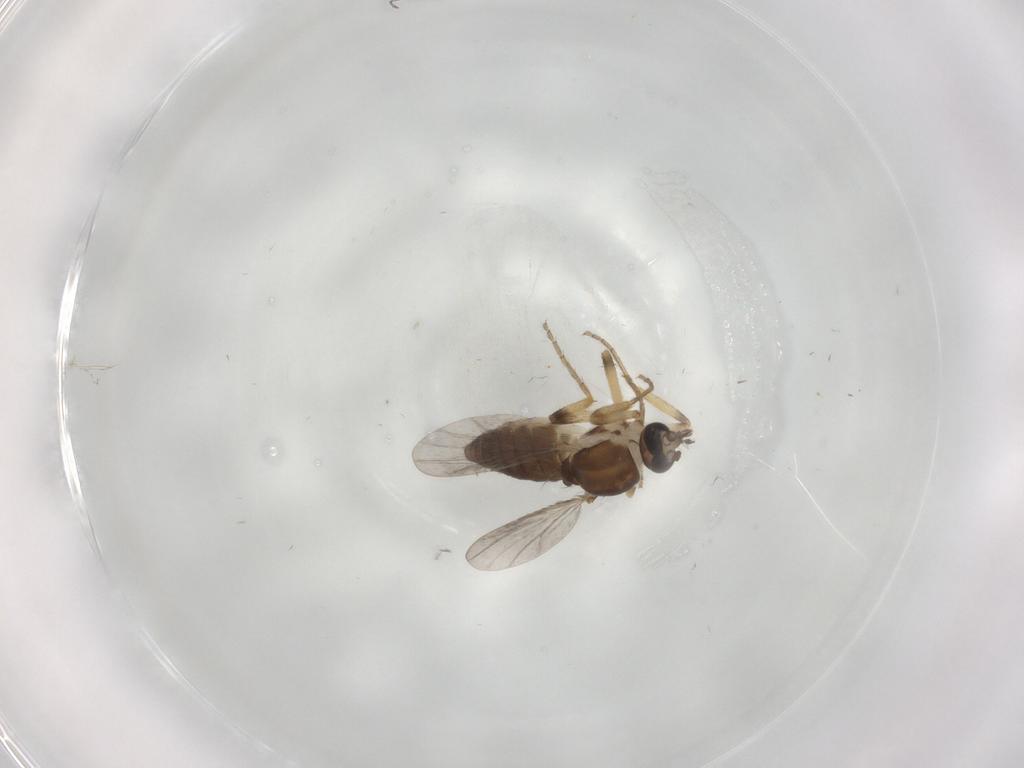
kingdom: Animalia
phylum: Arthropoda
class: Insecta
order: Diptera
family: Ceratopogonidae
